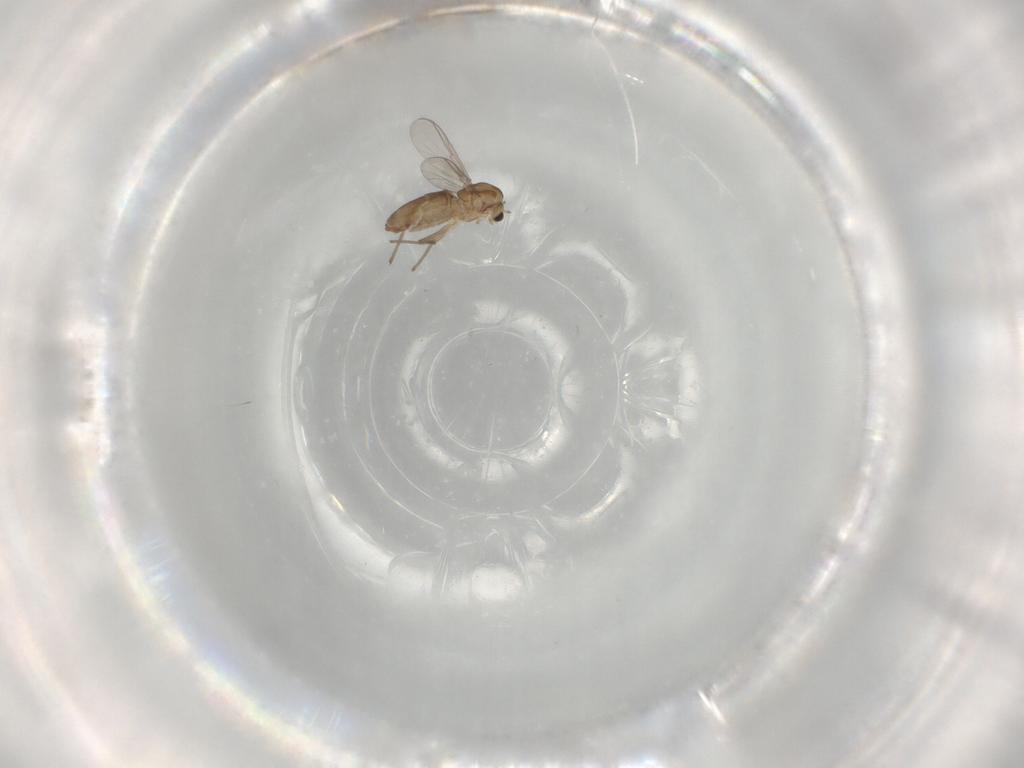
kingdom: Animalia
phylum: Arthropoda
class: Insecta
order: Diptera
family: Chironomidae
